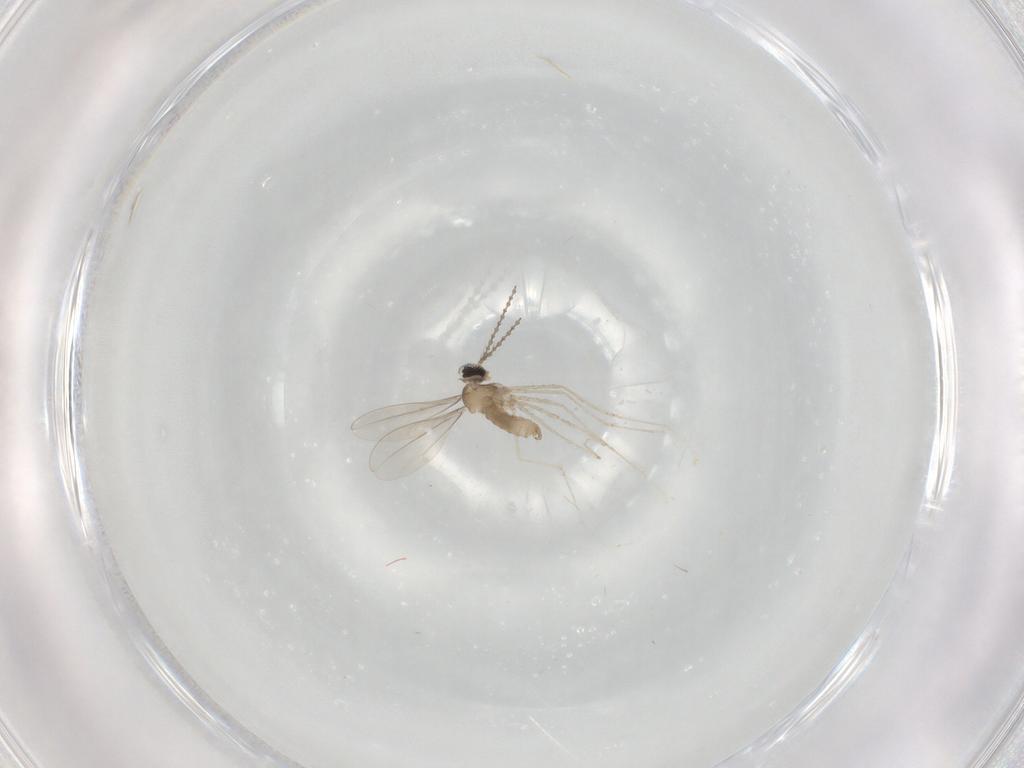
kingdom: Animalia
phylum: Arthropoda
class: Insecta
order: Diptera
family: Cecidomyiidae
